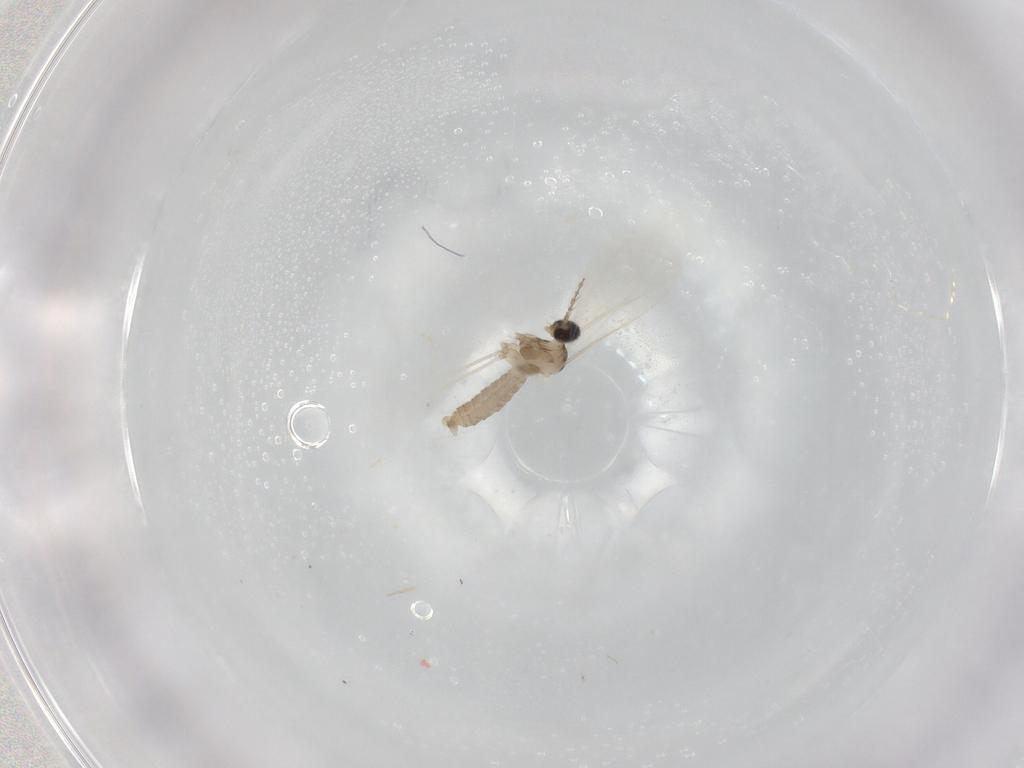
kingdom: Animalia
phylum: Arthropoda
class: Insecta
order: Diptera
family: Cecidomyiidae
